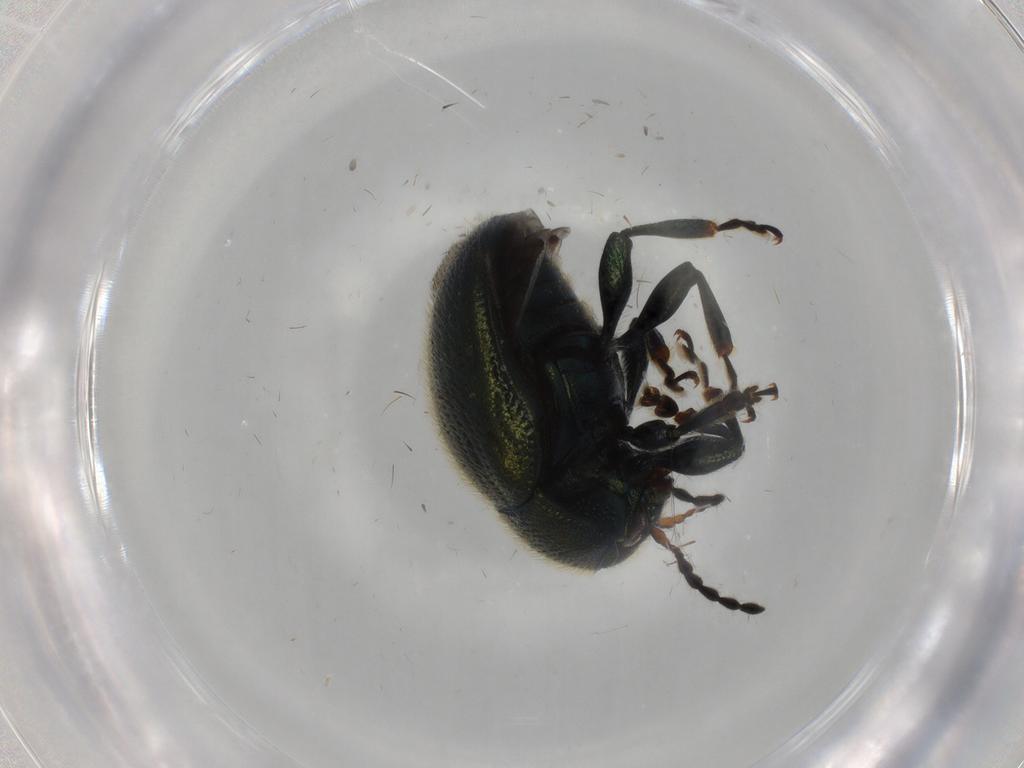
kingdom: Animalia
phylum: Arthropoda
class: Insecta
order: Coleoptera
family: Chrysomelidae
